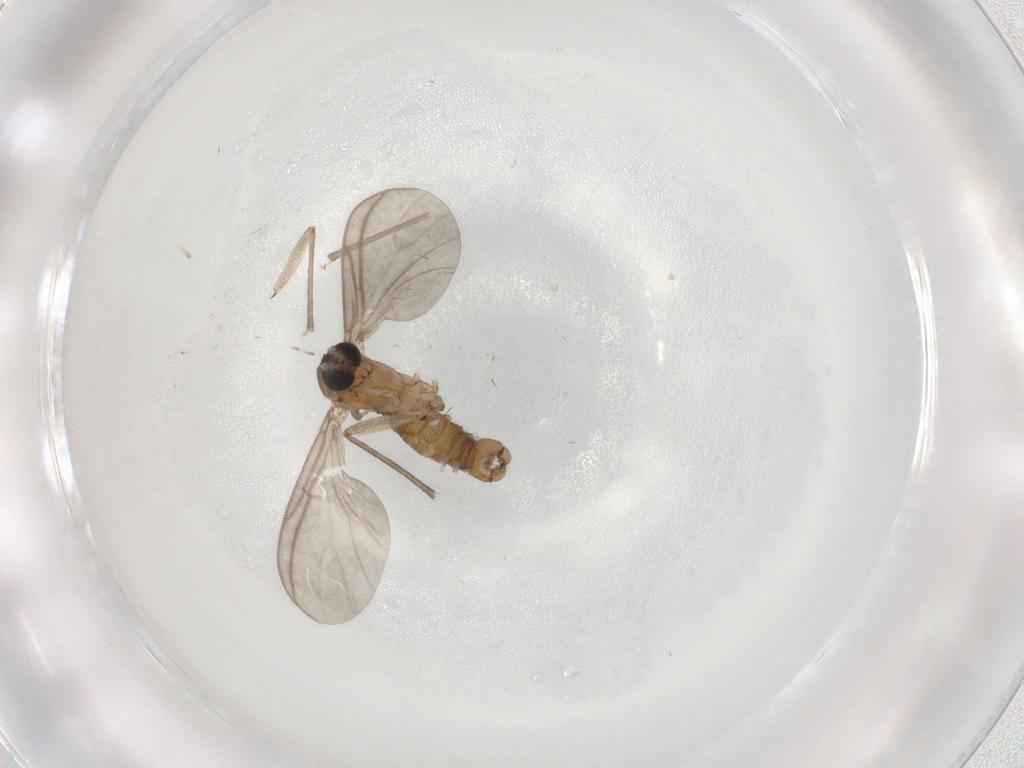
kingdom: Animalia
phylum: Arthropoda
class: Insecta
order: Diptera
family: Sciaridae
